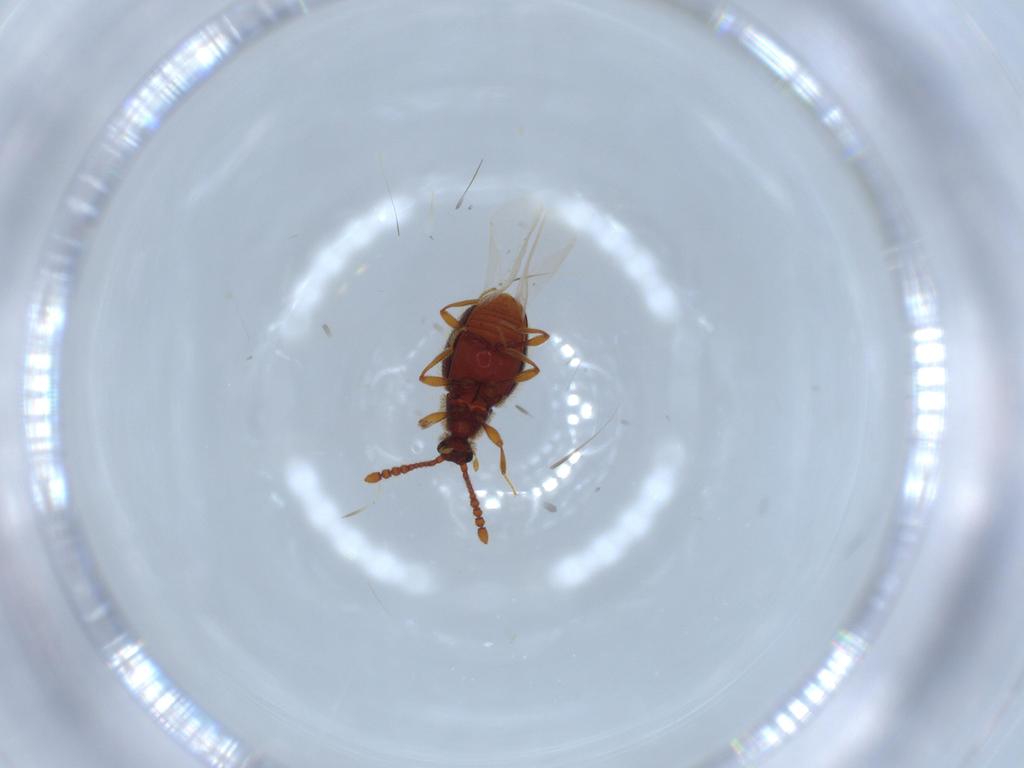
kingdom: Animalia
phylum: Arthropoda
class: Insecta
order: Coleoptera
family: Chrysomelidae
